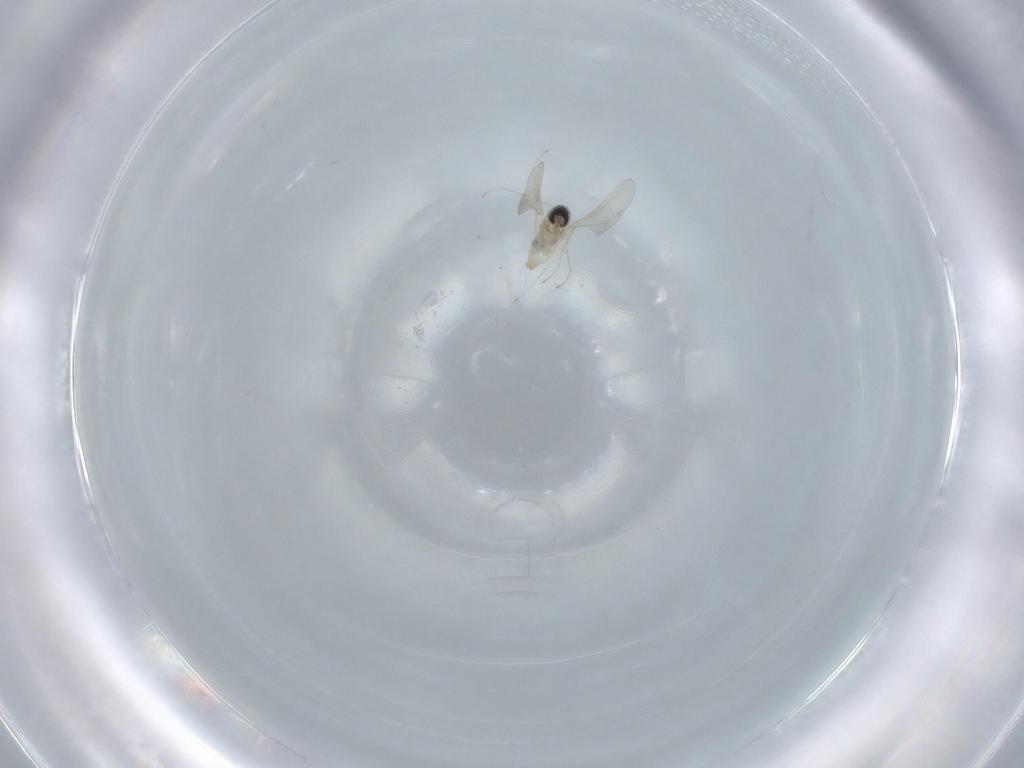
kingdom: Animalia
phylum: Arthropoda
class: Insecta
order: Diptera
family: Cecidomyiidae
